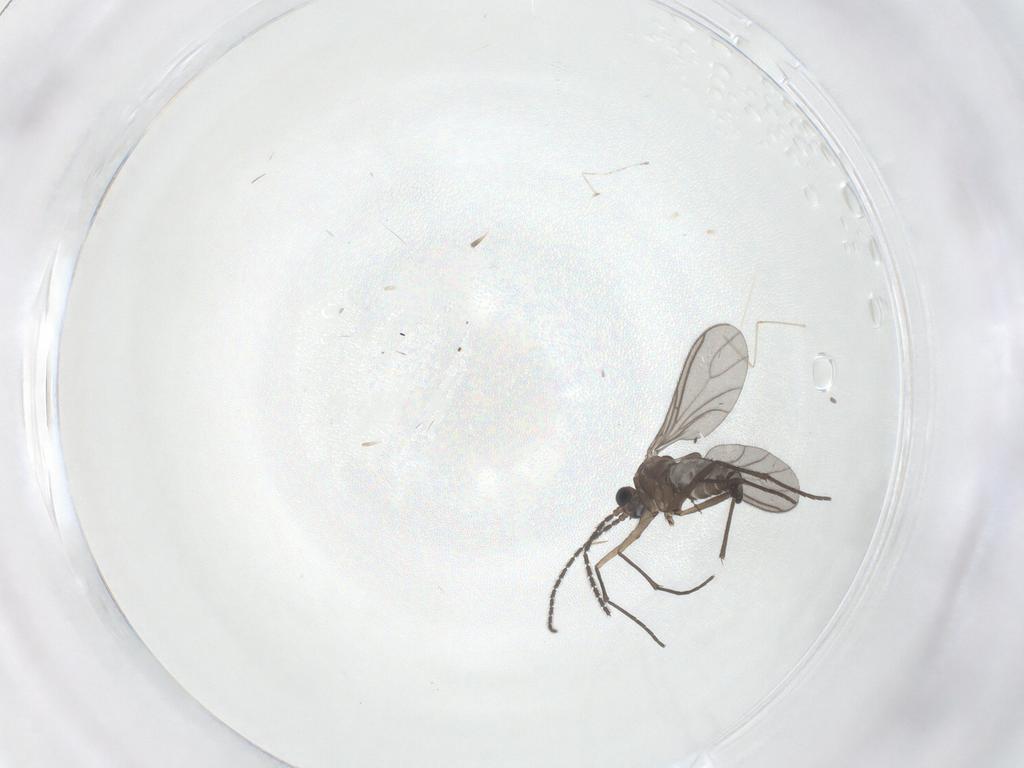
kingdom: Animalia
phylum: Arthropoda
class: Insecta
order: Diptera
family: Sciaridae
